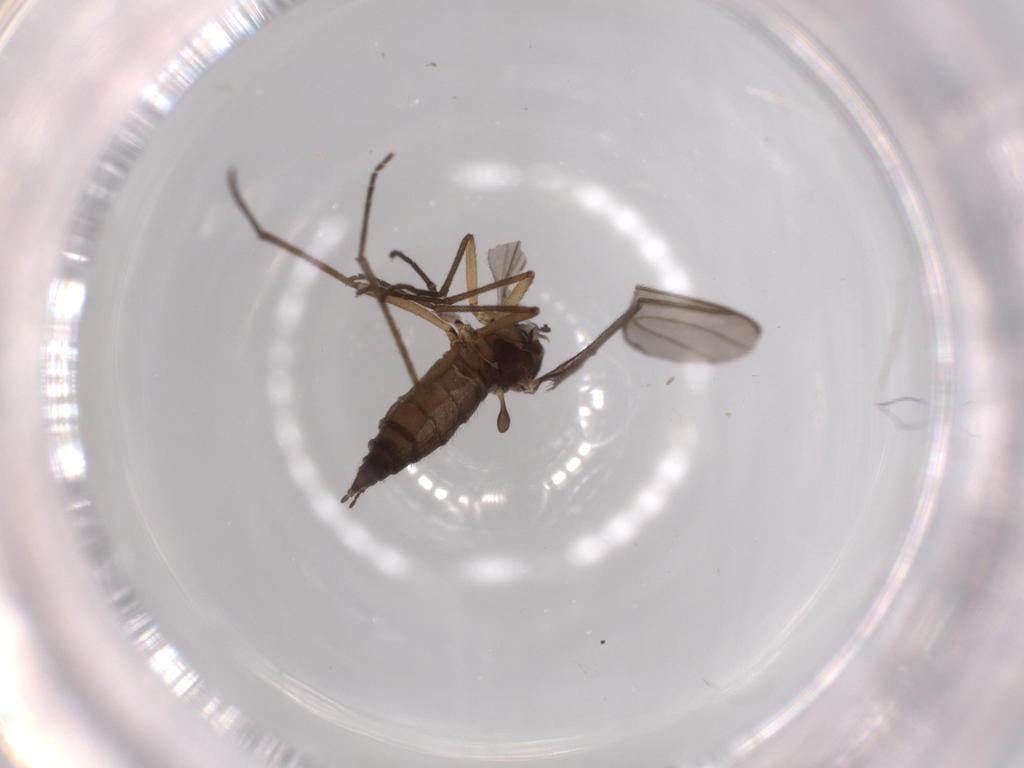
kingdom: Animalia
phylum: Arthropoda
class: Insecta
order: Diptera
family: Sciaridae
